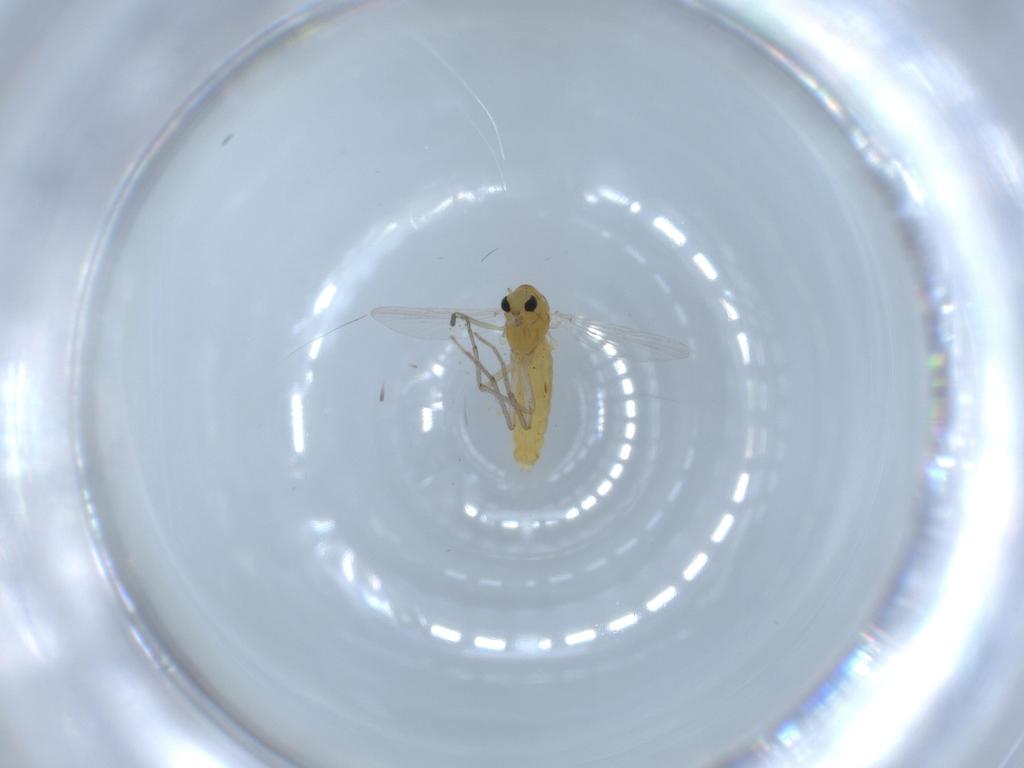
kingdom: Animalia
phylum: Arthropoda
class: Insecta
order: Diptera
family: Chironomidae
